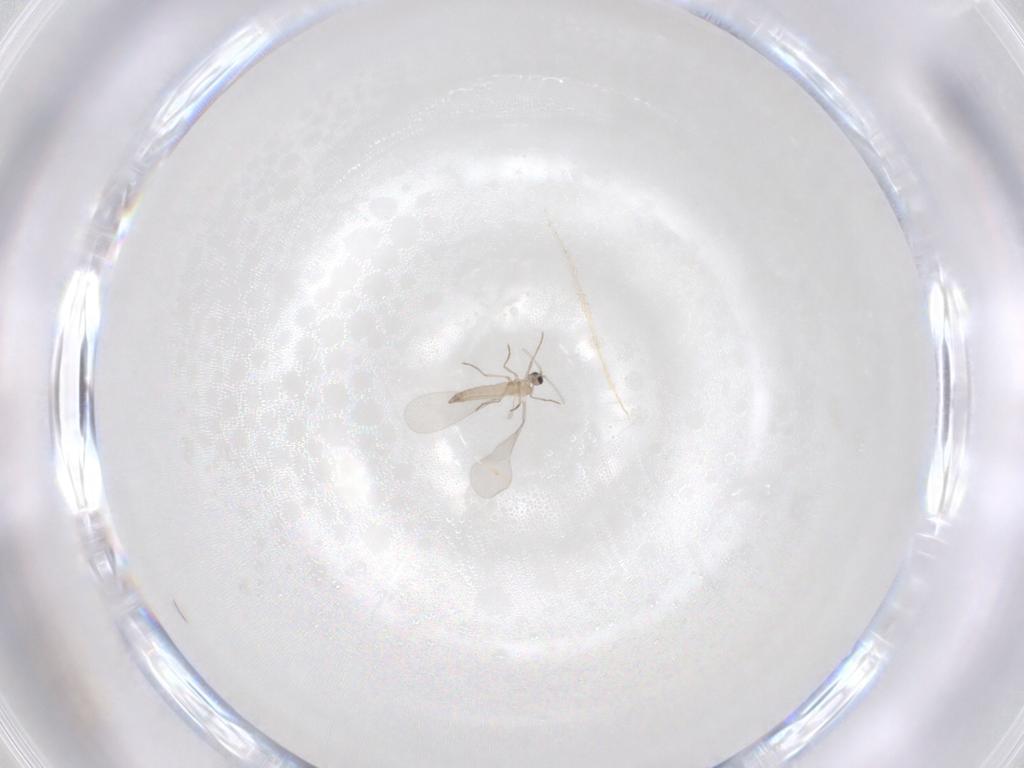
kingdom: Animalia
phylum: Arthropoda
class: Insecta
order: Diptera
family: Cecidomyiidae
